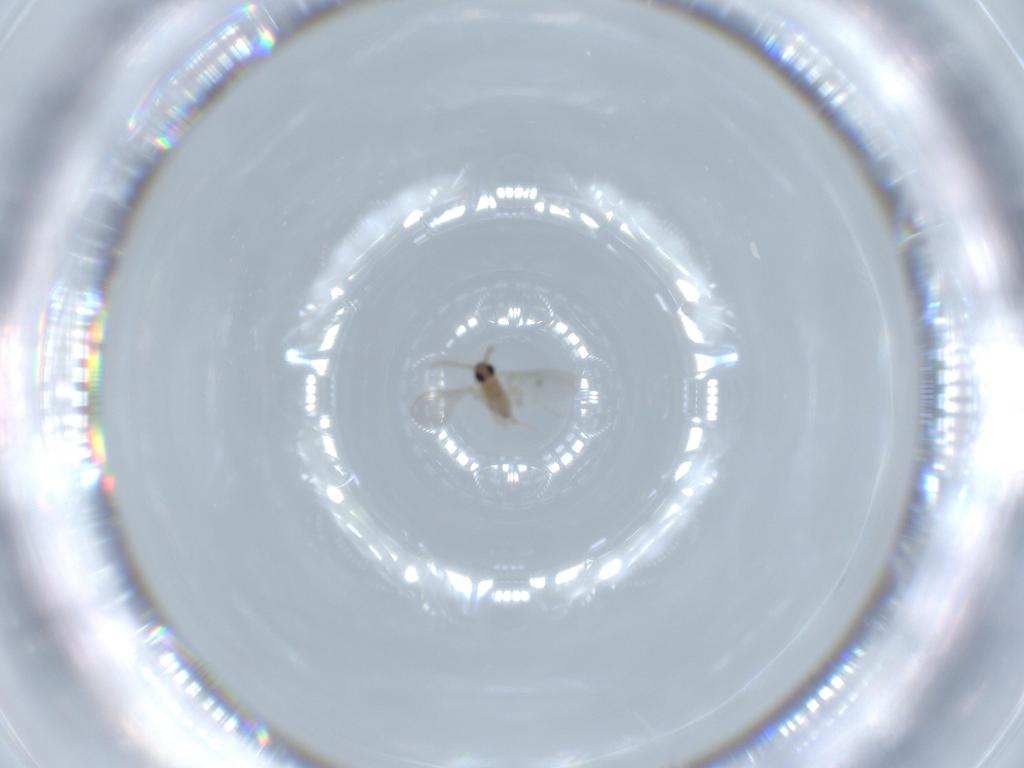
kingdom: Animalia
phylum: Arthropoda
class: Insecta
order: Diptera
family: Cecidomyiidae
